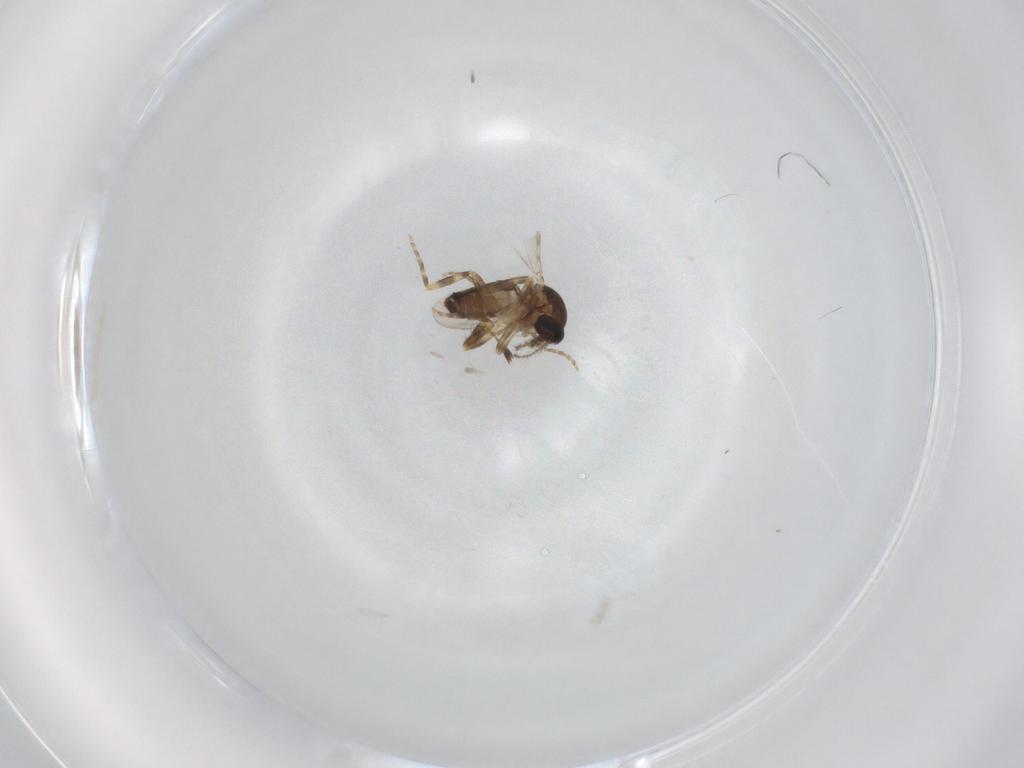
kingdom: Animalia
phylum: Arthropoda
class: Insecta
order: Diptera
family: Ceratopogonidae
